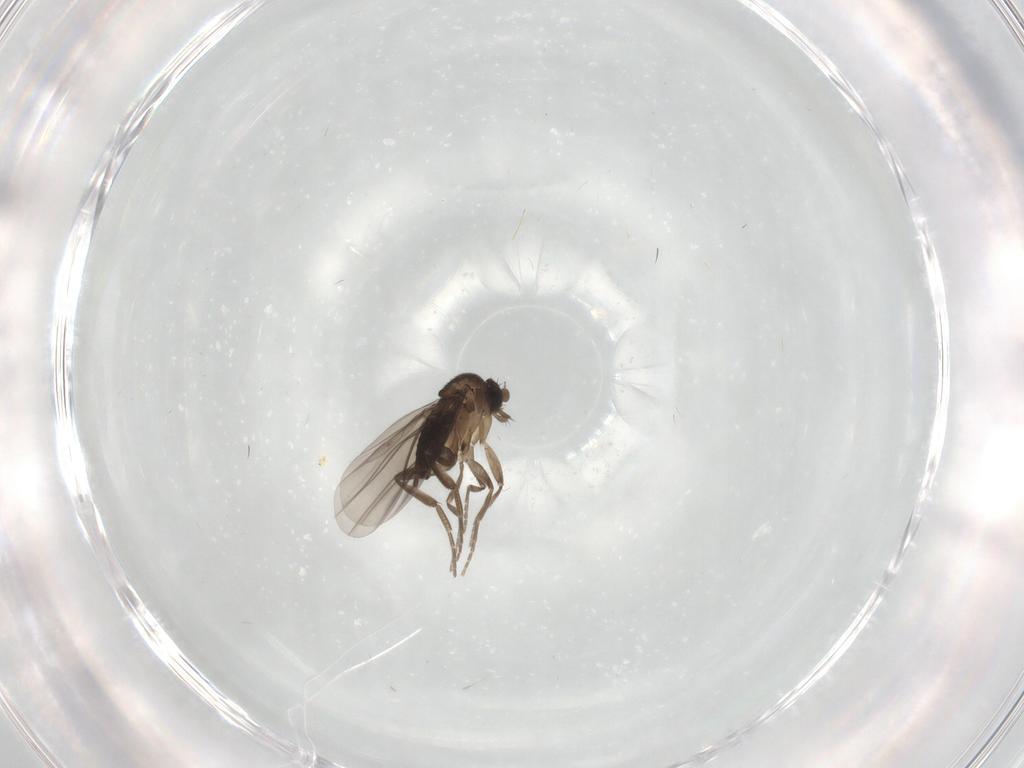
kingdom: Animalia
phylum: Arthropoda
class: Insecta
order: Diptera
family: Phoridae
